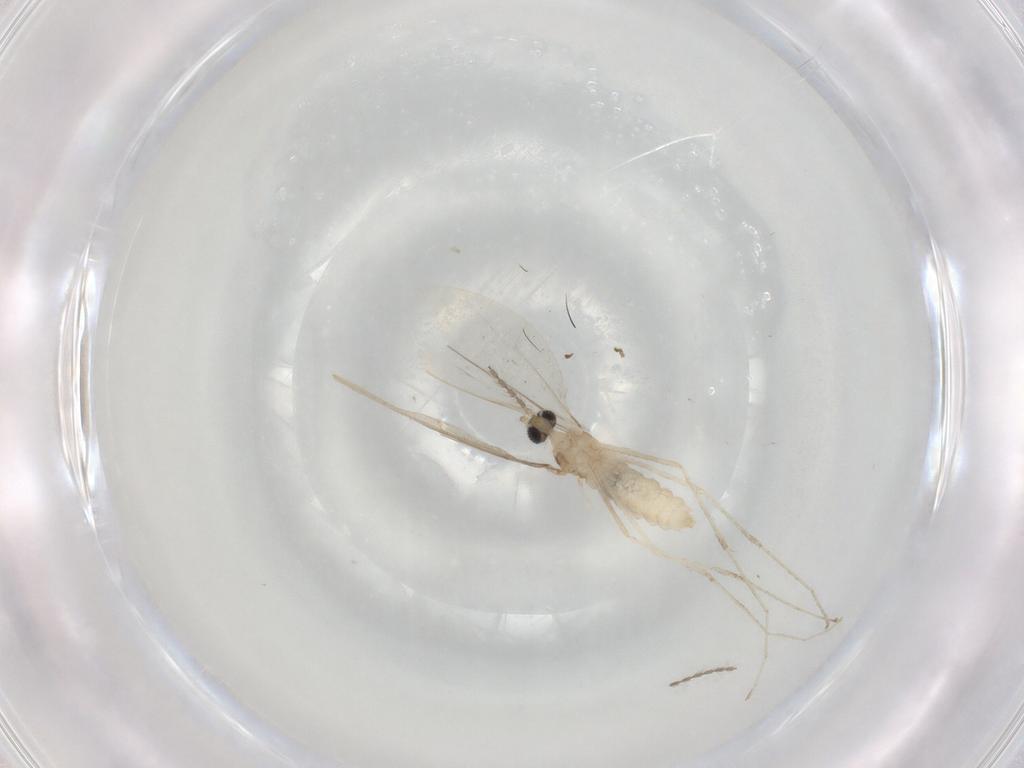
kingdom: Animalia
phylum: Arthropoda
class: Insecta
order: Diptera
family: Cecidomyiidae
